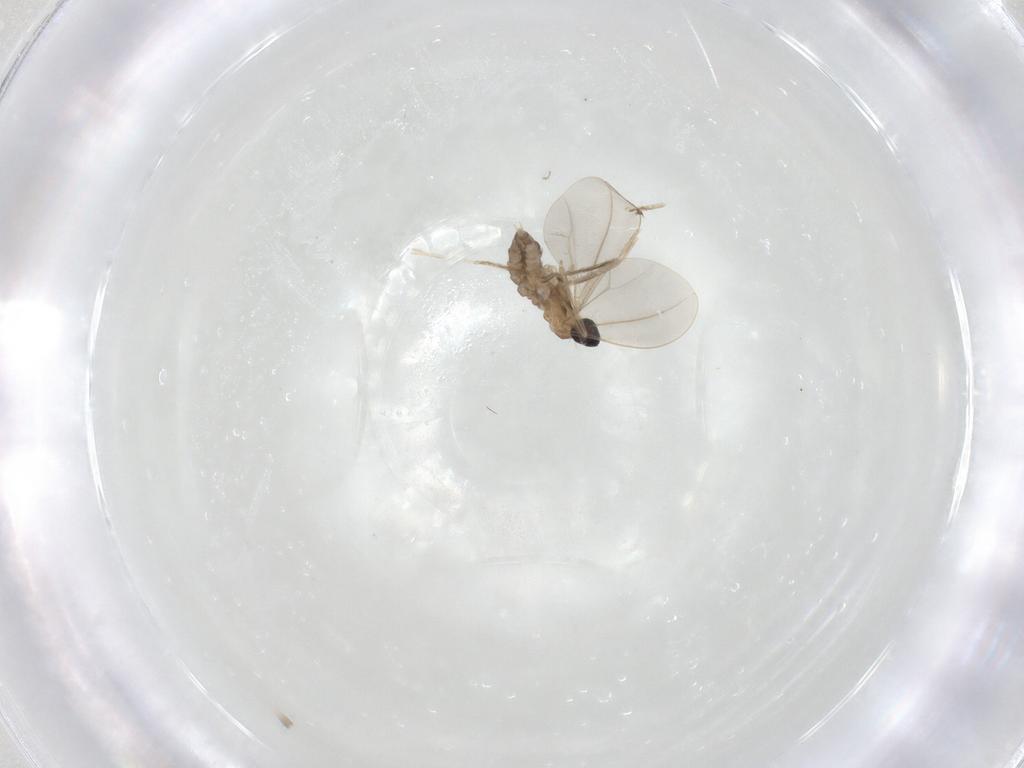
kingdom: Animalia
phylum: Arthropoda
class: Insecta
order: Diptera
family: Cecidomyiidae
